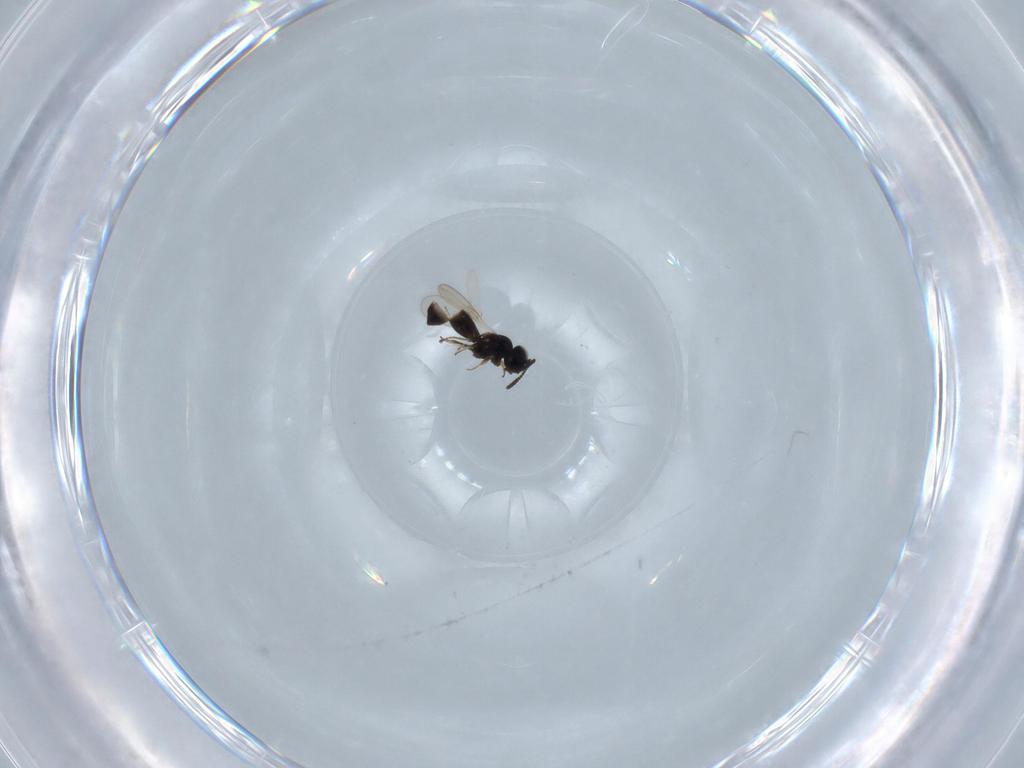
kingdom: Animalia
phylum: Arthropoda
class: Insecta
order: Hymenoptera
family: Scelionidae
